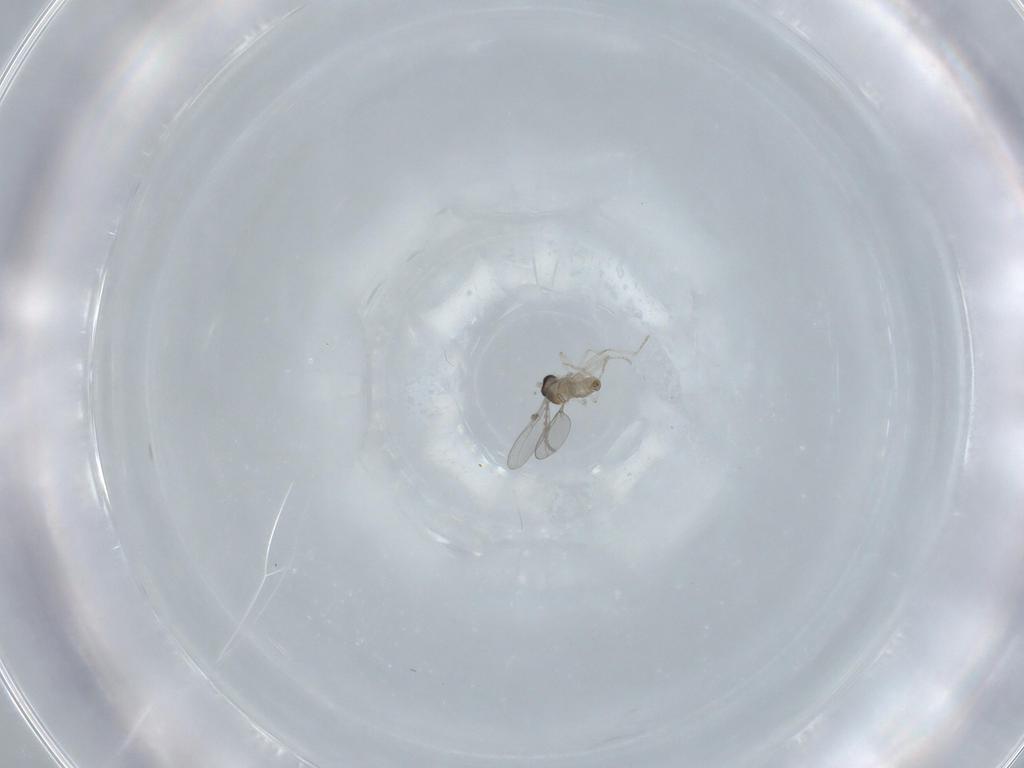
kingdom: Animalia
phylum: Arthropoda
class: Insecta
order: Diptera
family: Cecidomyiidae
